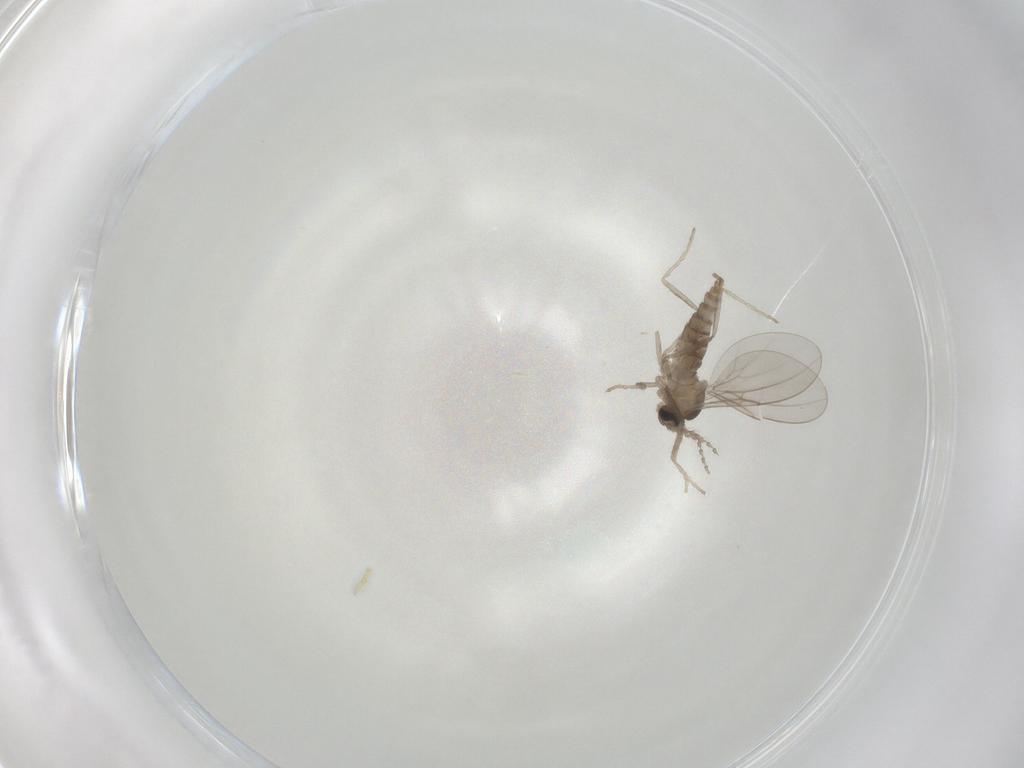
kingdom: Animalia
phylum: Arthropoda
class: Insecta
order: Diptera
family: Cecidomyiidae
